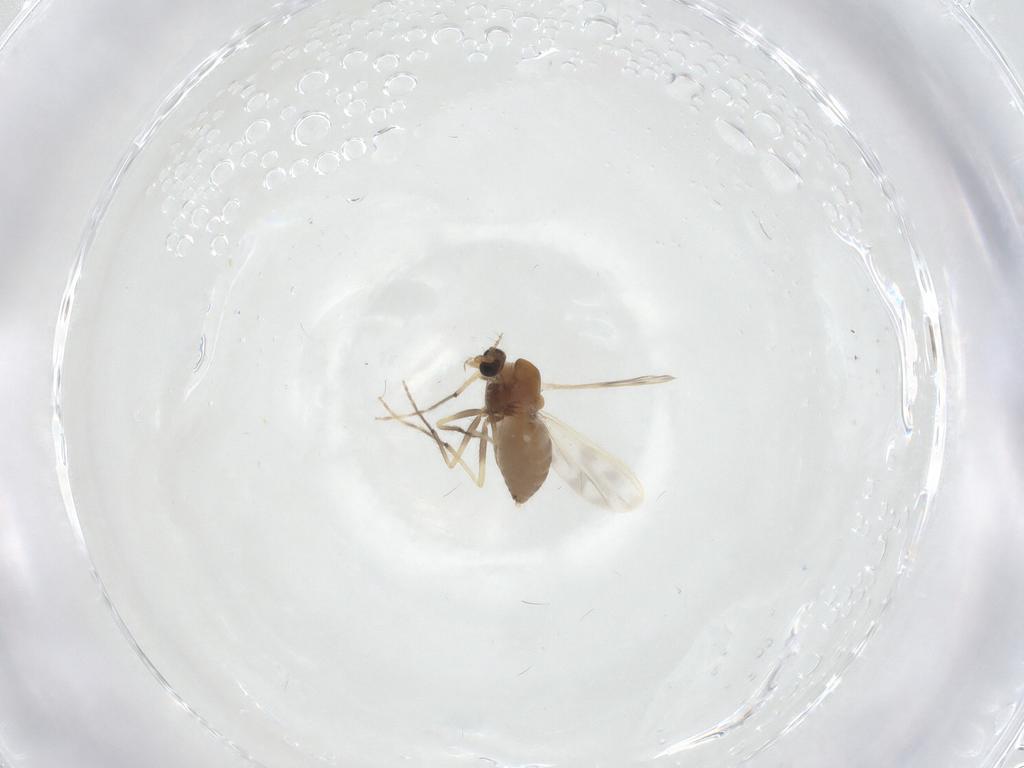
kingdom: Animalia
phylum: Arthropoda
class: Insecta
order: Diptera
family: Chironomidae
